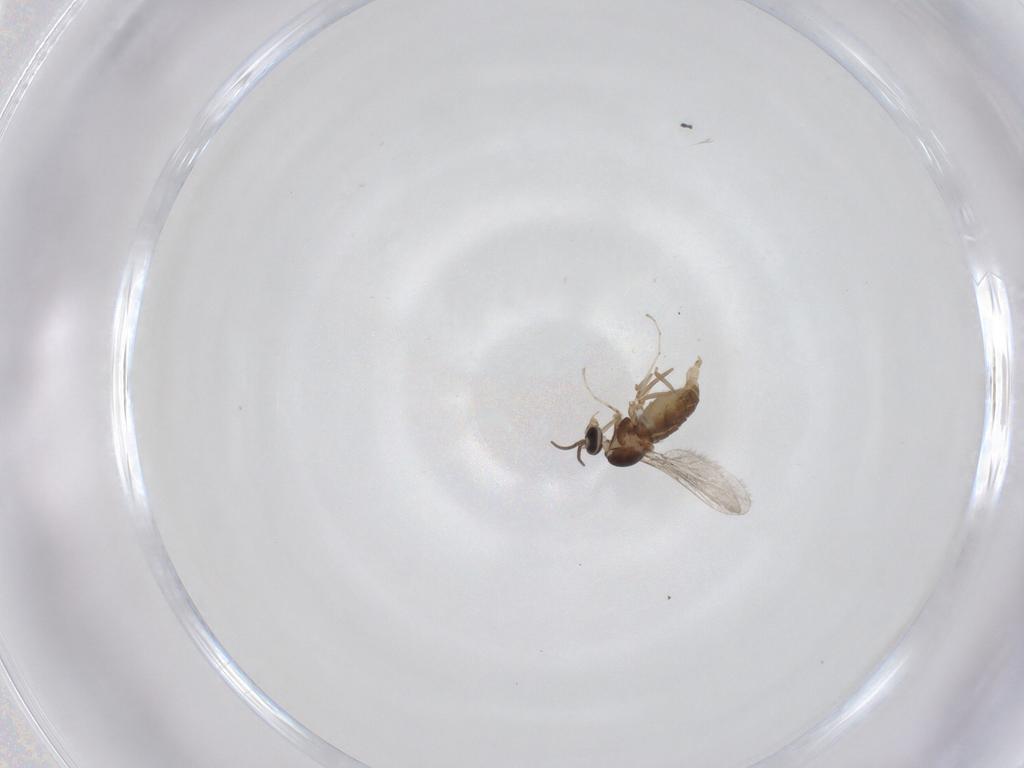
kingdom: Animalia
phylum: Arthropoda
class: Insecta
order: Diptera
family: Cecidomyiidae
